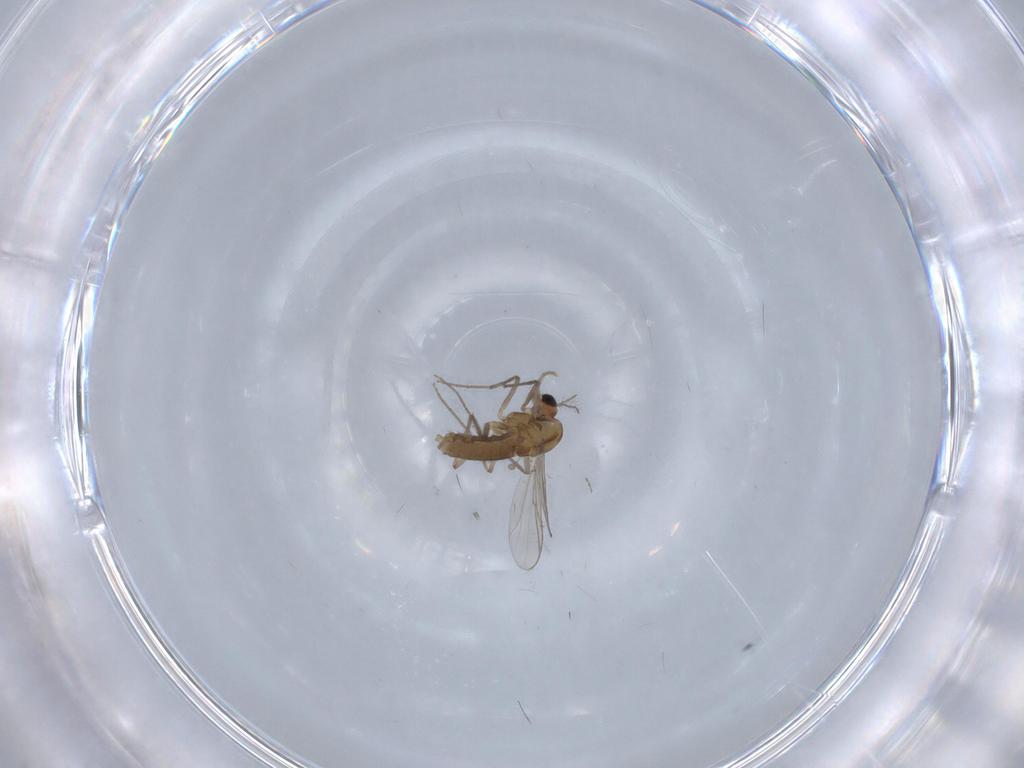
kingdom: Animalia
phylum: Arthropoda
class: Insecta
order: Diptera
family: Chironomidae
